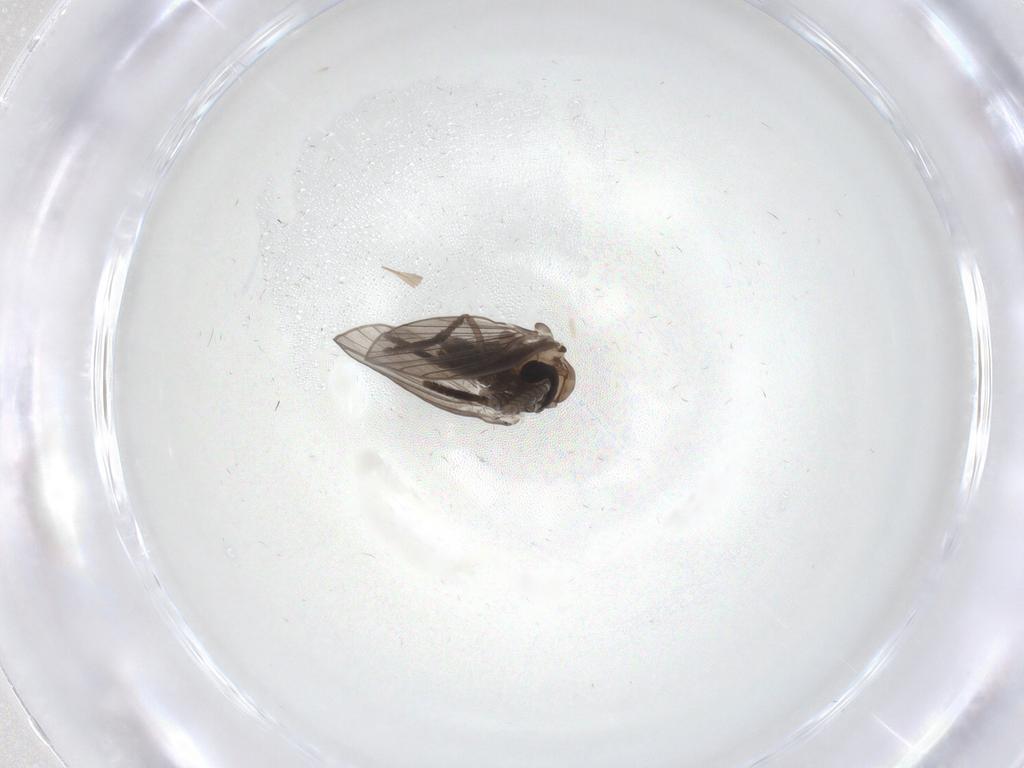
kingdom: Animalia
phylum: Arthropoda
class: Insecta
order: Diptera
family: Psychodidae
